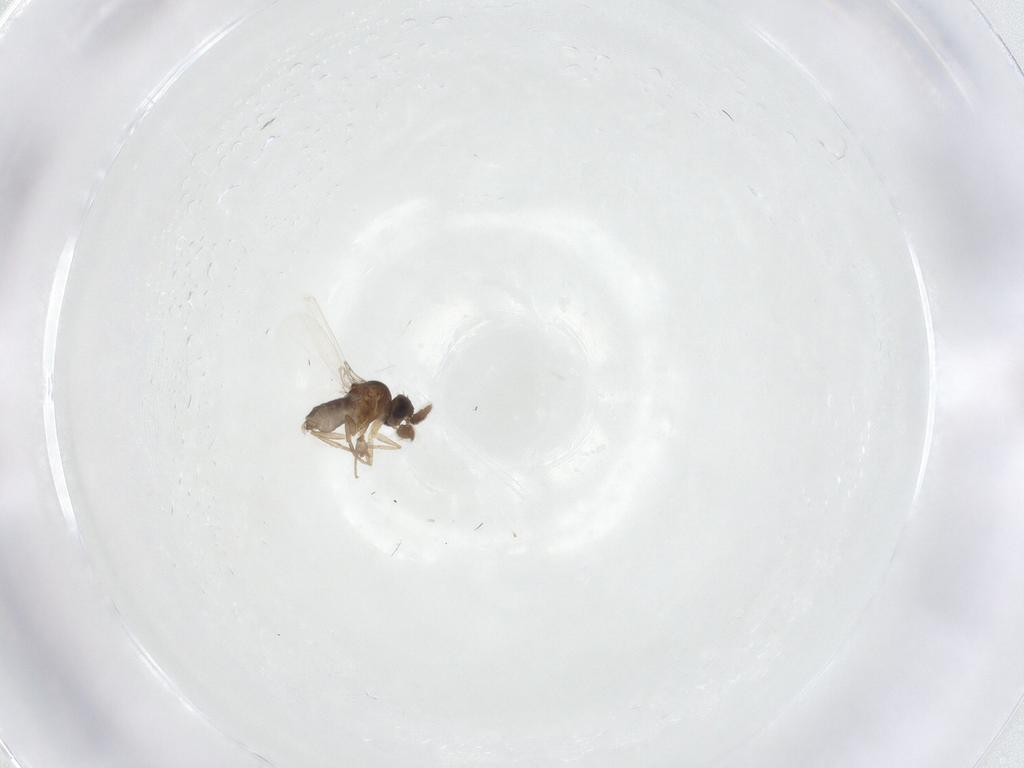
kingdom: Animalia
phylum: Arthropoda
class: Insecta
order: Diptera
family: Phoridae
